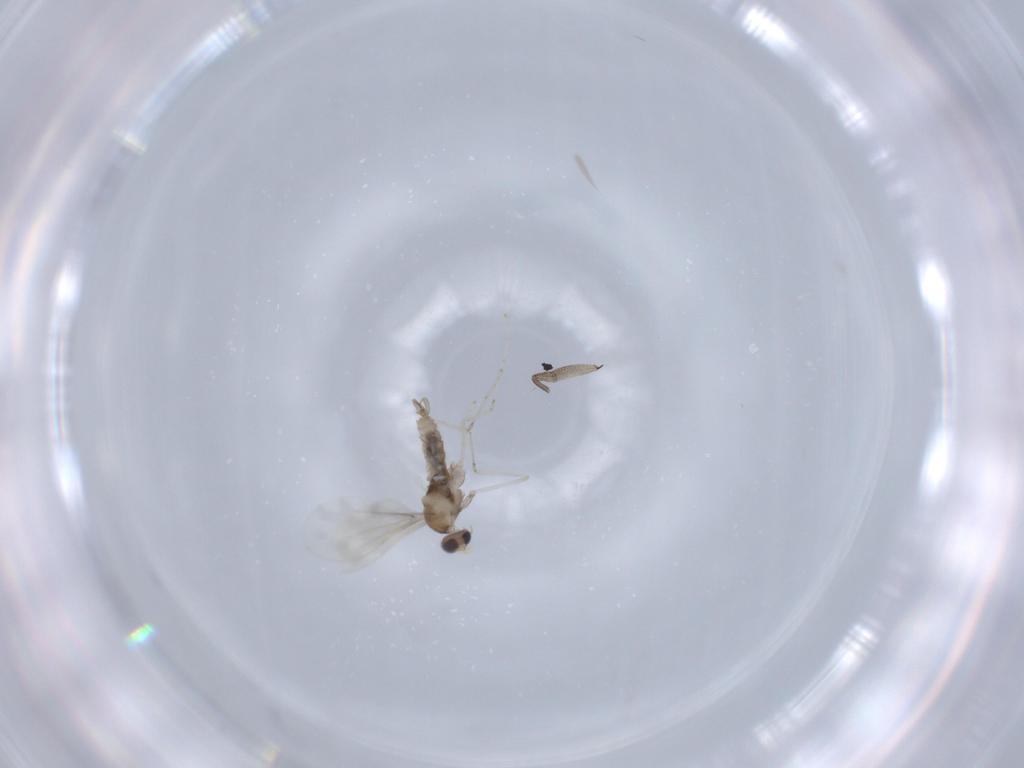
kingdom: Animalia
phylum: Arthropoda
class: Insecta
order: Diptera
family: Cecidomyiidae
